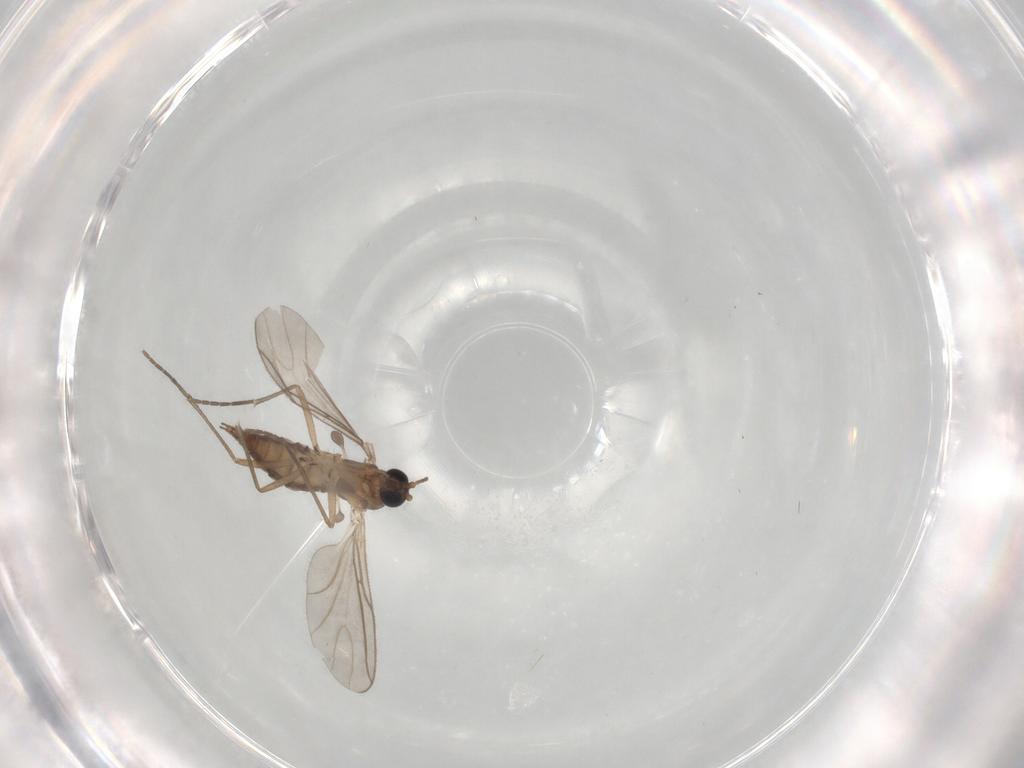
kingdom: Animalia
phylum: Arthropoda
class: Insecta
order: Diptera
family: Sciaridae
